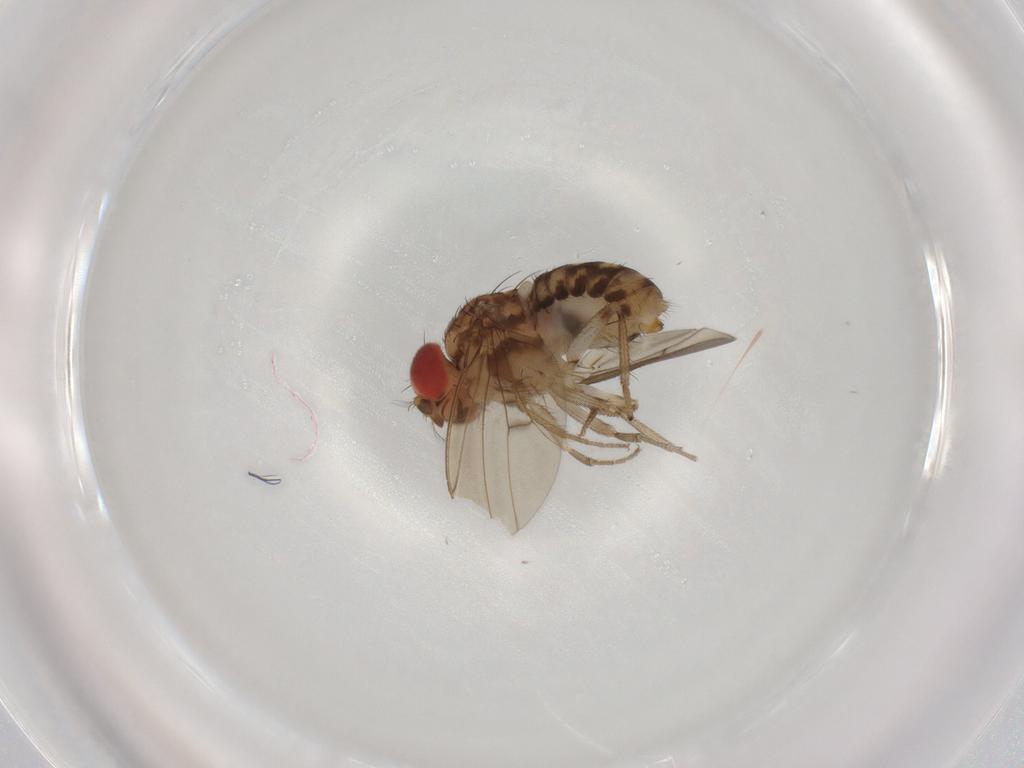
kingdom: Animalia
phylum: Arthropoda
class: Insecta
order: Diptera
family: Drosophilidae
